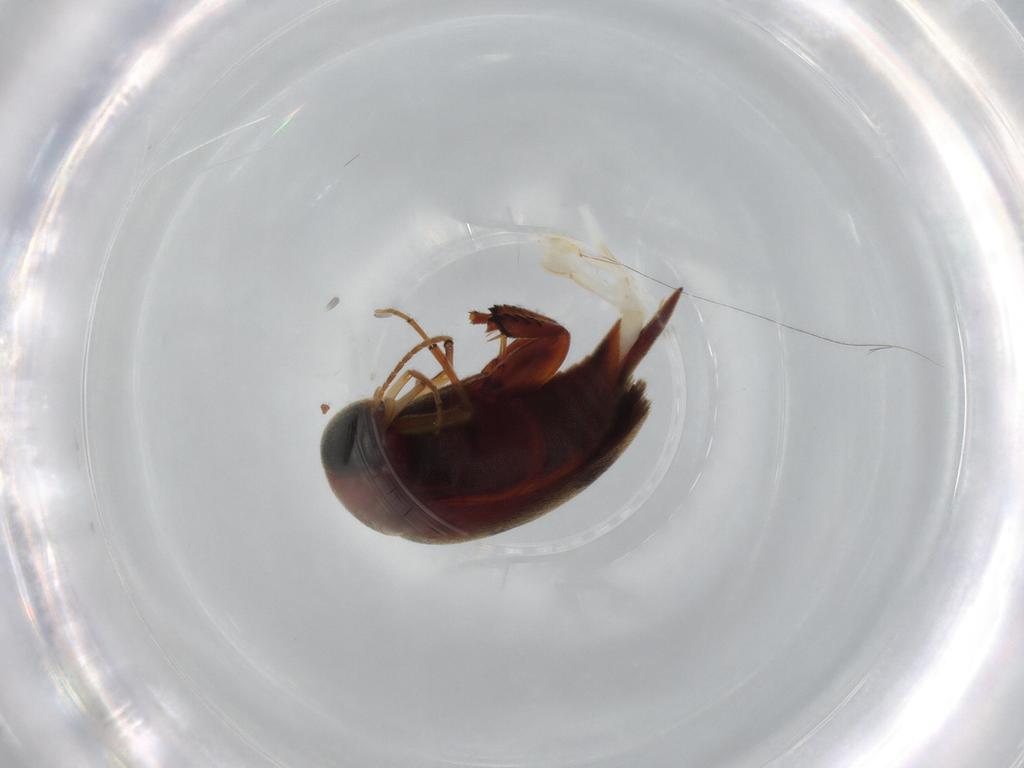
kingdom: Animalia
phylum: Arthropoda
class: Insecta
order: Coleoptera
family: Mordellidae
